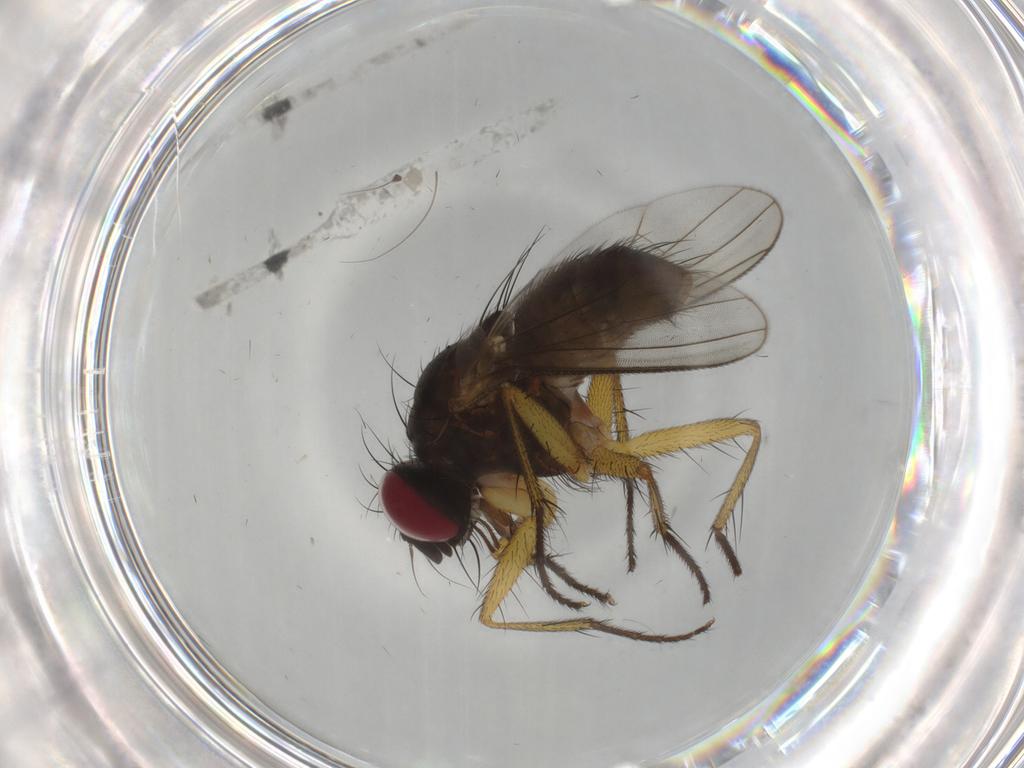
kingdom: Animalia
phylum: Arthropoda
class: Insecta
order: Diptera
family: Muscidae
